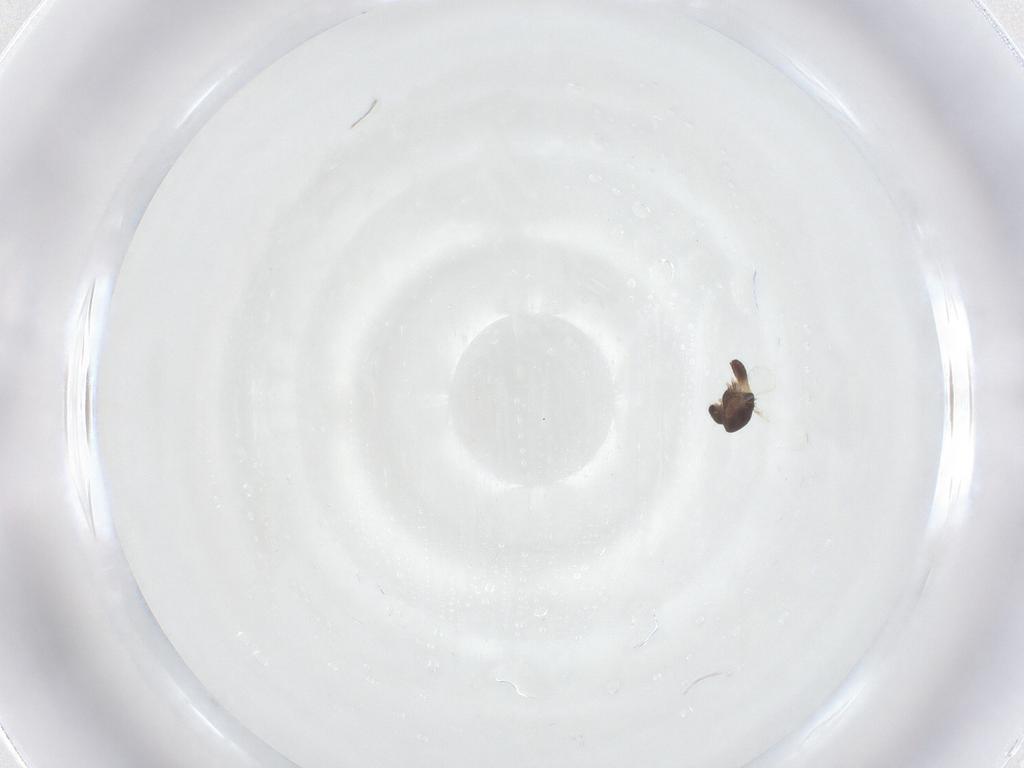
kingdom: Animalia
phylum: Arthropoda
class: Insecta
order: Diptera
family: Chironomidae
